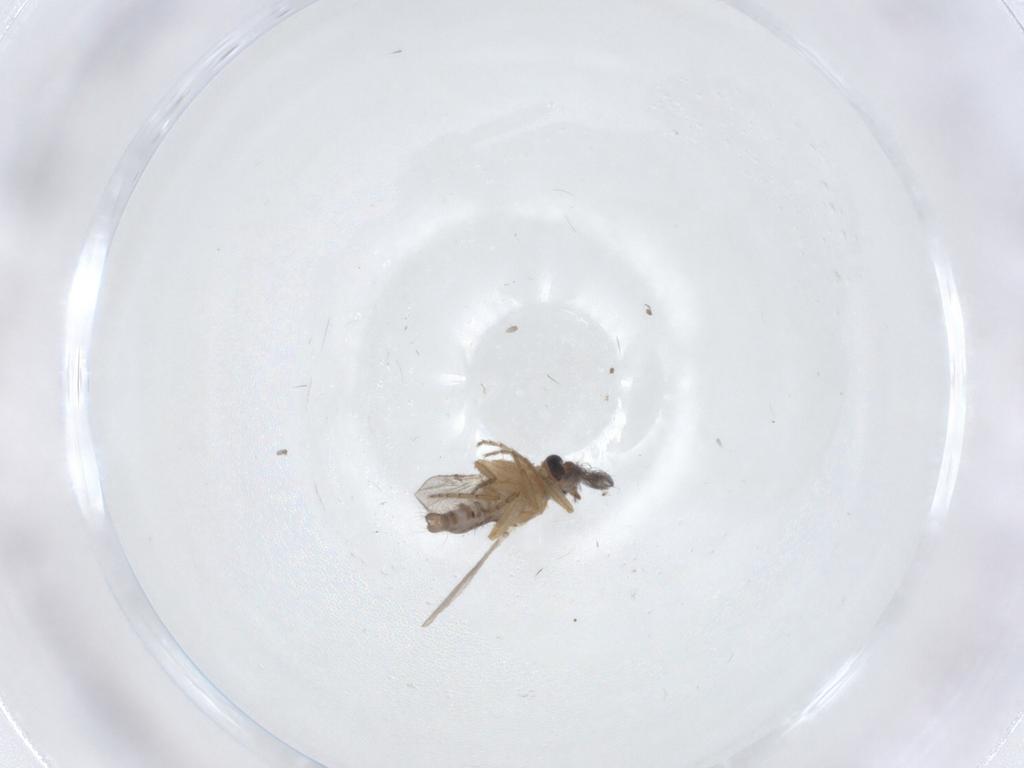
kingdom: Animalia
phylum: Arthropoda
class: Insecta
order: Diptera
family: Ceratopogonidae
